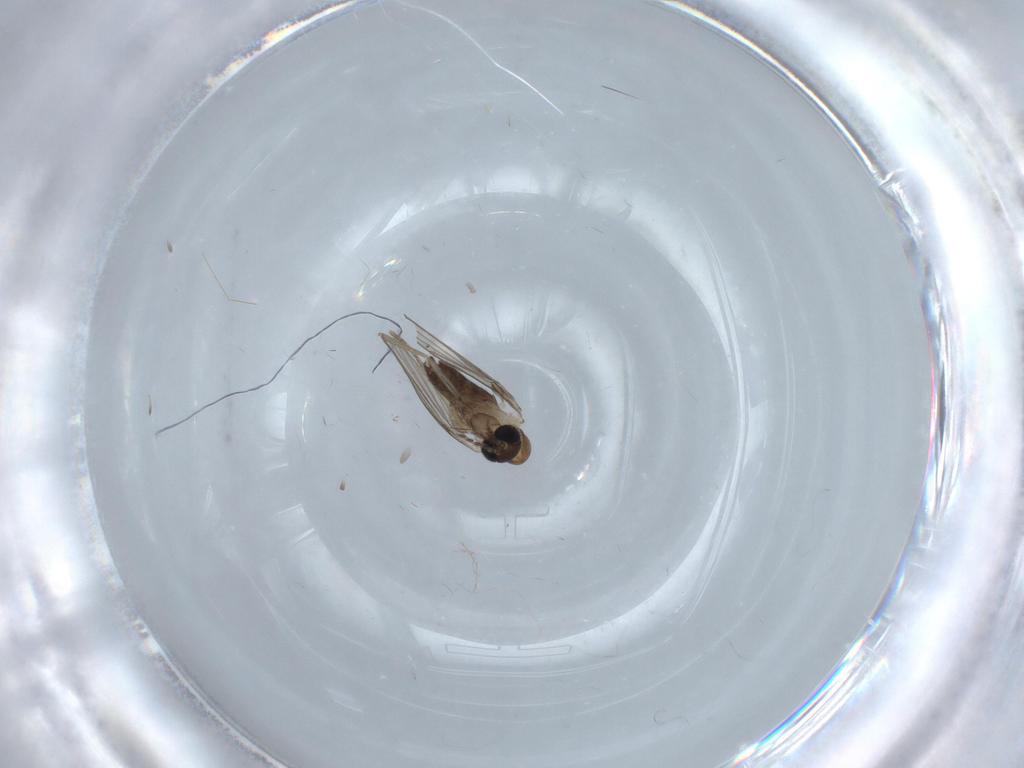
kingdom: Animalia
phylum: Arthropoda
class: Insecta
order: Diptera
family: Psychodidae
